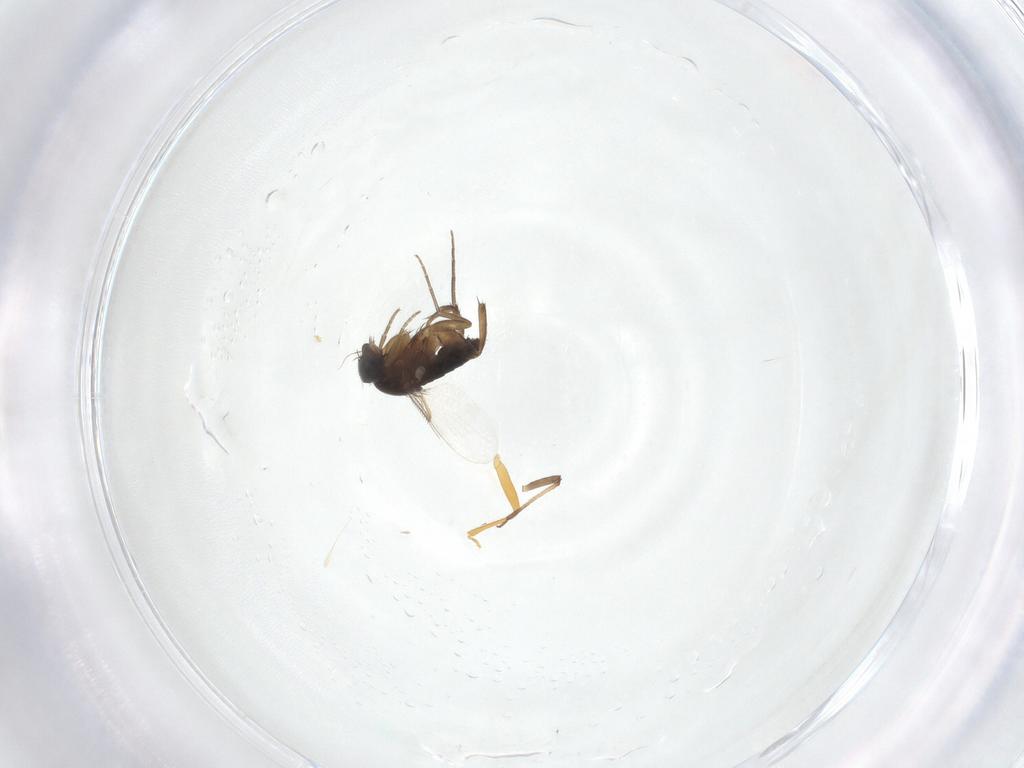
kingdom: Animalia
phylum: Arthropoda
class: Insecta
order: Diptera
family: Phoridae
